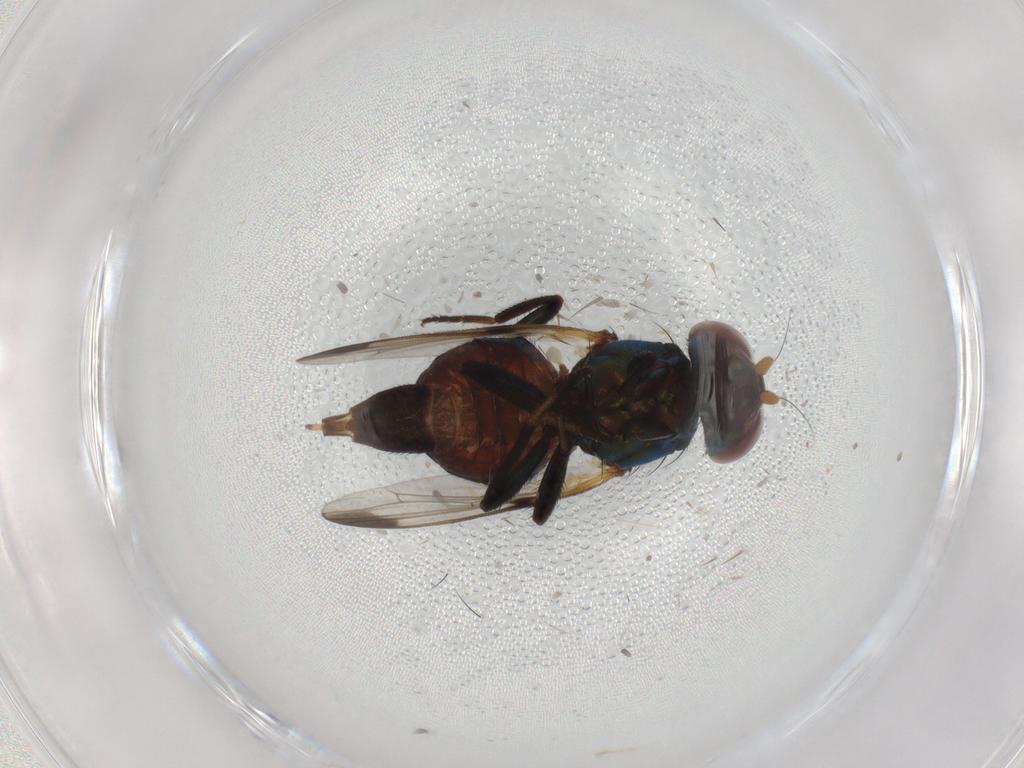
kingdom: Animalia
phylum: Arthropoda
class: Insecta
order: Diptera
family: Ulidiidae
